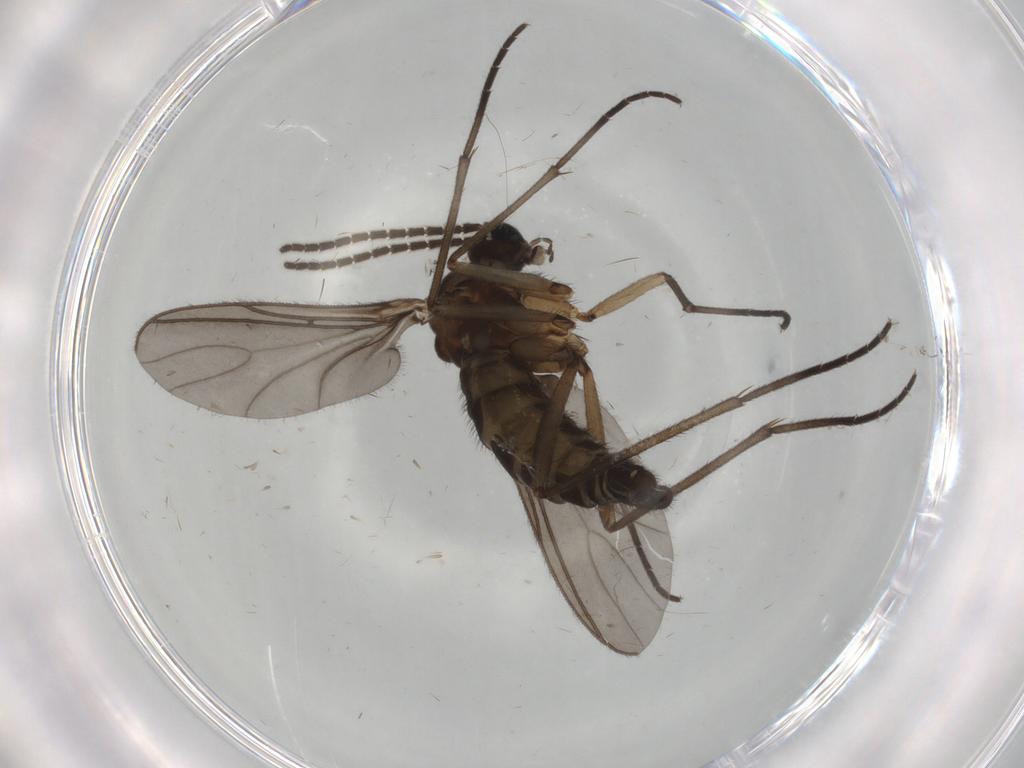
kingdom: Animalia
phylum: Arthropoda
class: Insecta
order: Diptera
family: Sciaridae
